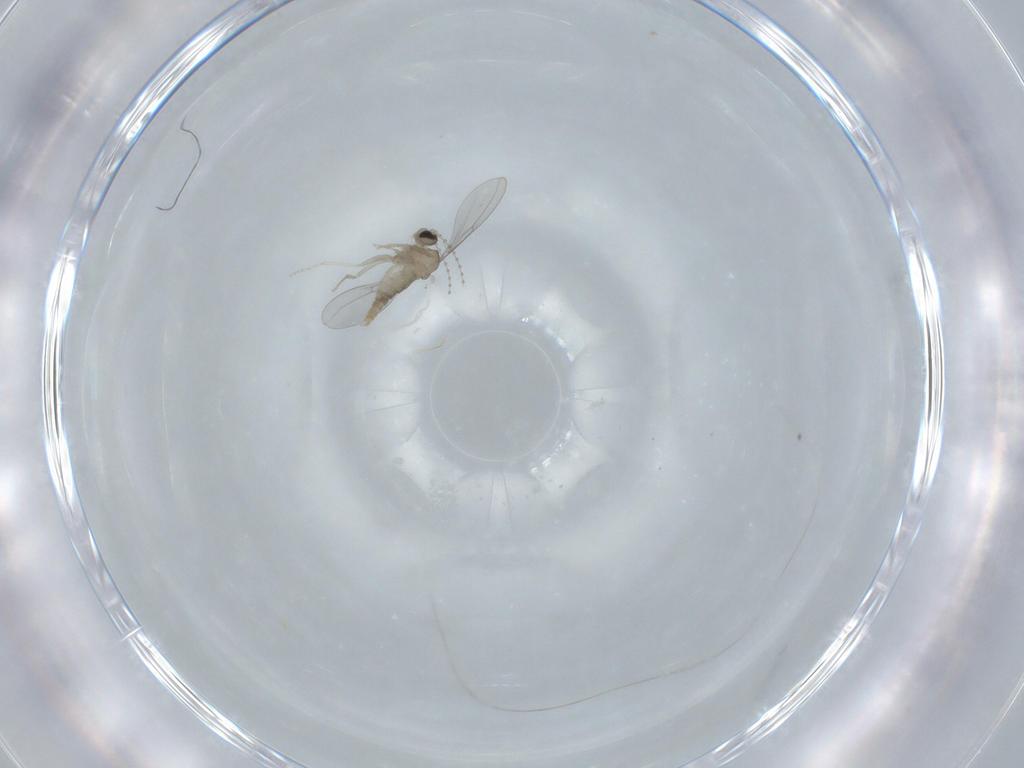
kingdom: Animalia
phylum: Arthropoda
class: Insecta
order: Diptera
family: Cecidomyiidae
